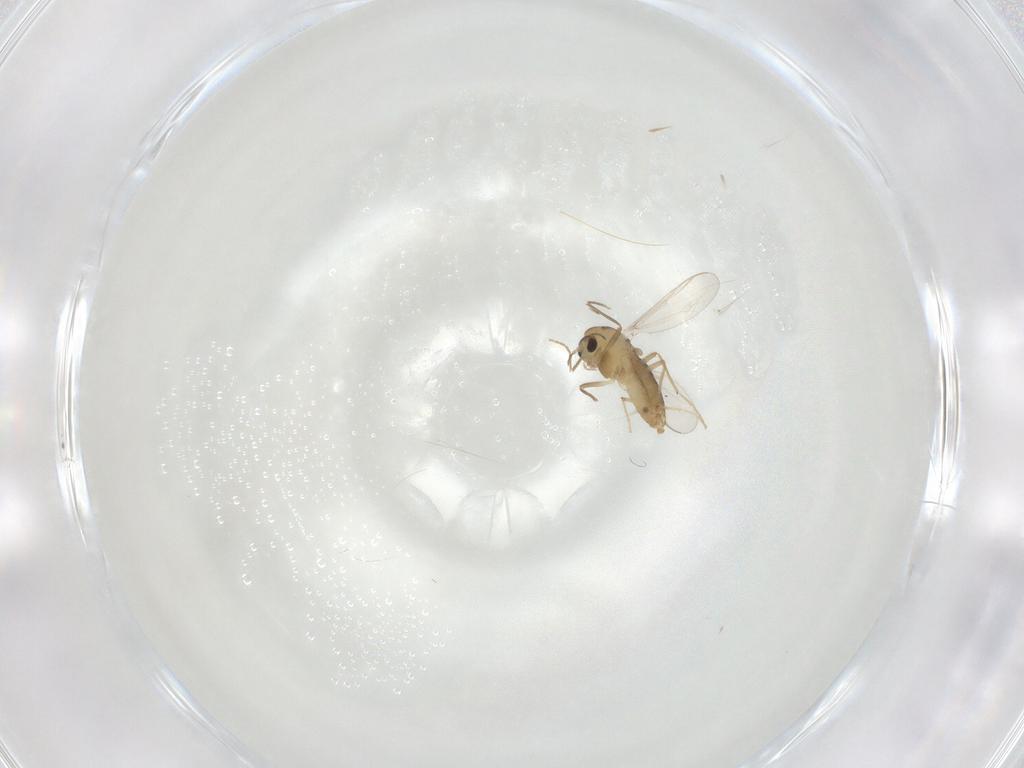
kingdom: Animalia
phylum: Arthropoda
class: Insecta
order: Diptera
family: Chironomidae
